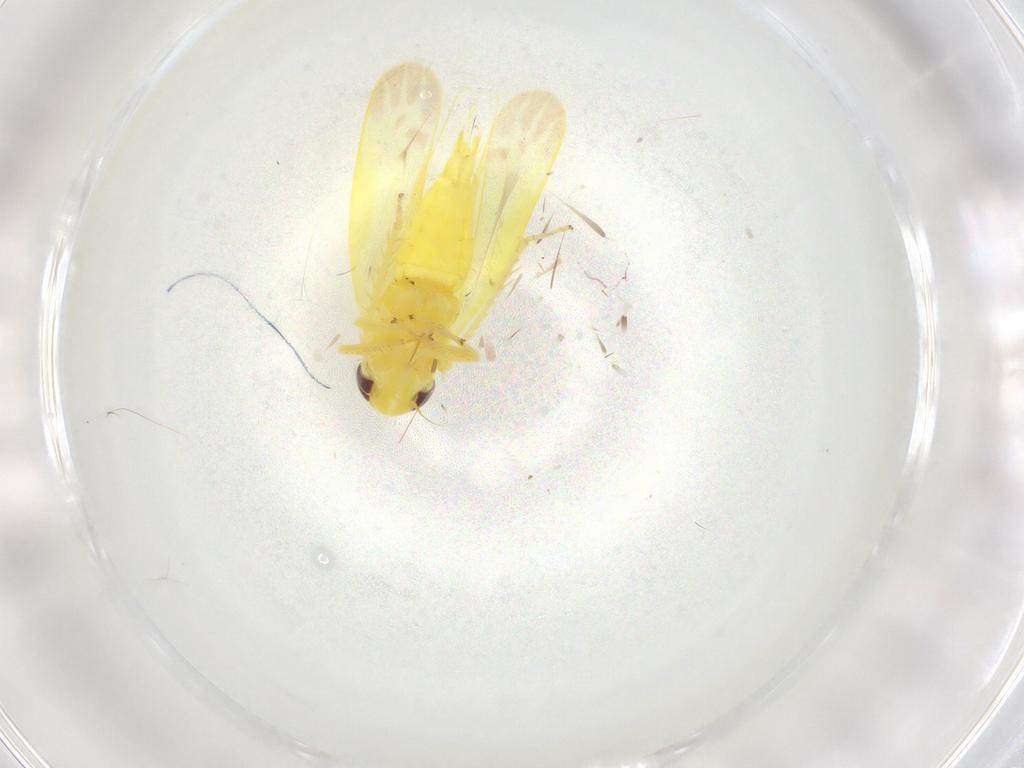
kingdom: Animalia
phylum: Arthropoda
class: Insecta
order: Hemiptera
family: Cicadellidae
